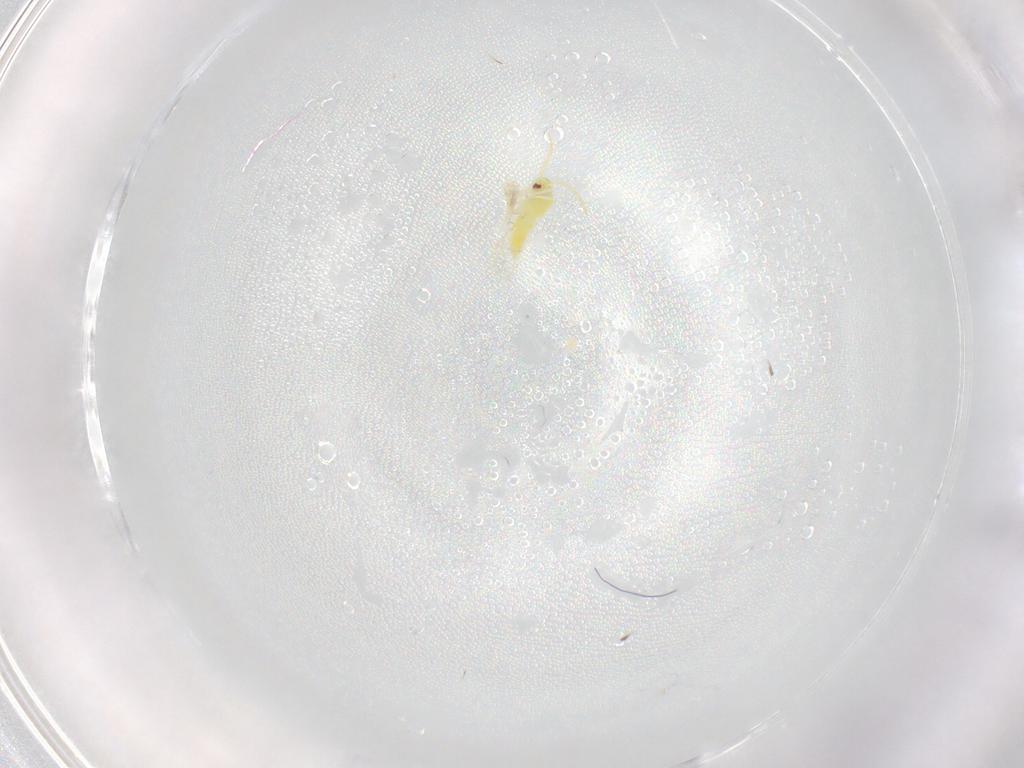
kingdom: Animalia
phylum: Arthropoda
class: Insecta
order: Hemiptera
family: Aleyrodidae
